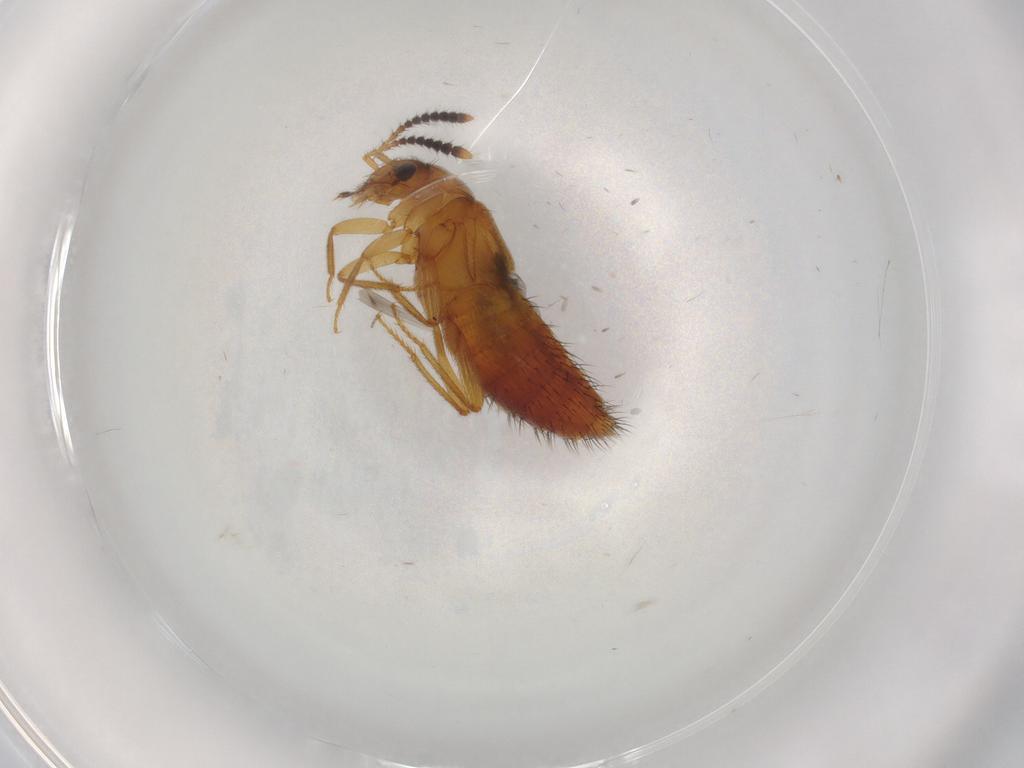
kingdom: Animalia
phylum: Arthropoda
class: Insecta
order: Coleoptera
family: Staphylinidae
